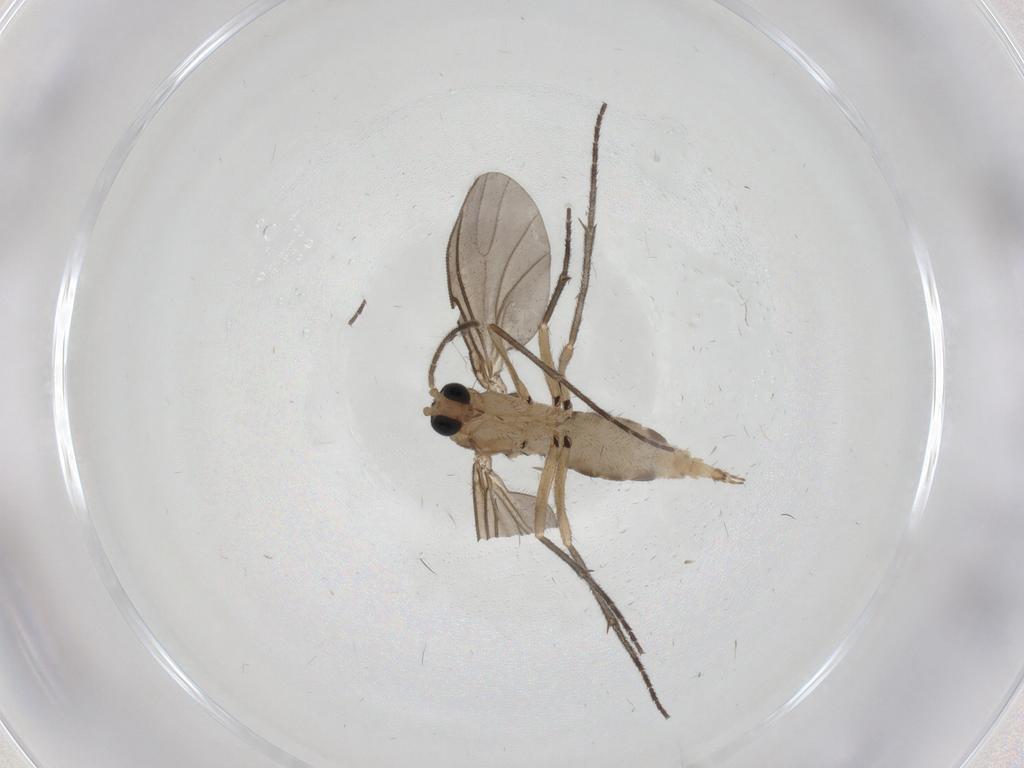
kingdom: Animalia
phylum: Arthropoda
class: Insecta
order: Diptera
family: Sciaridae
